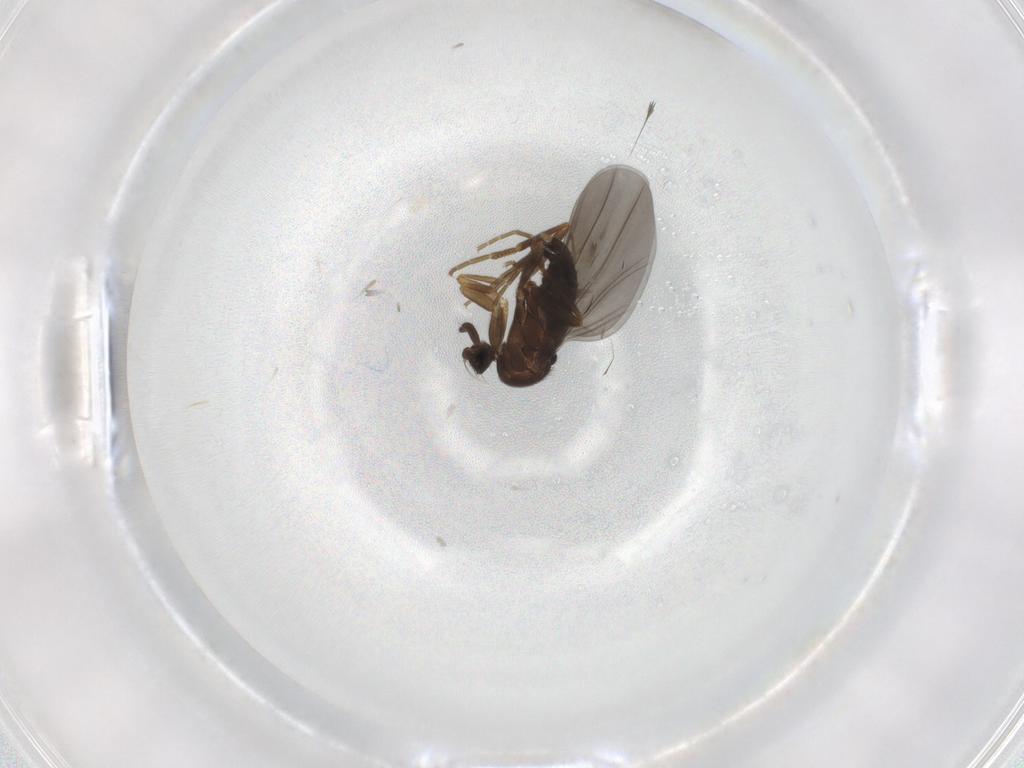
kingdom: Animalia
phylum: Arthropoda
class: Insecta
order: Diptera
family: Phoridae
